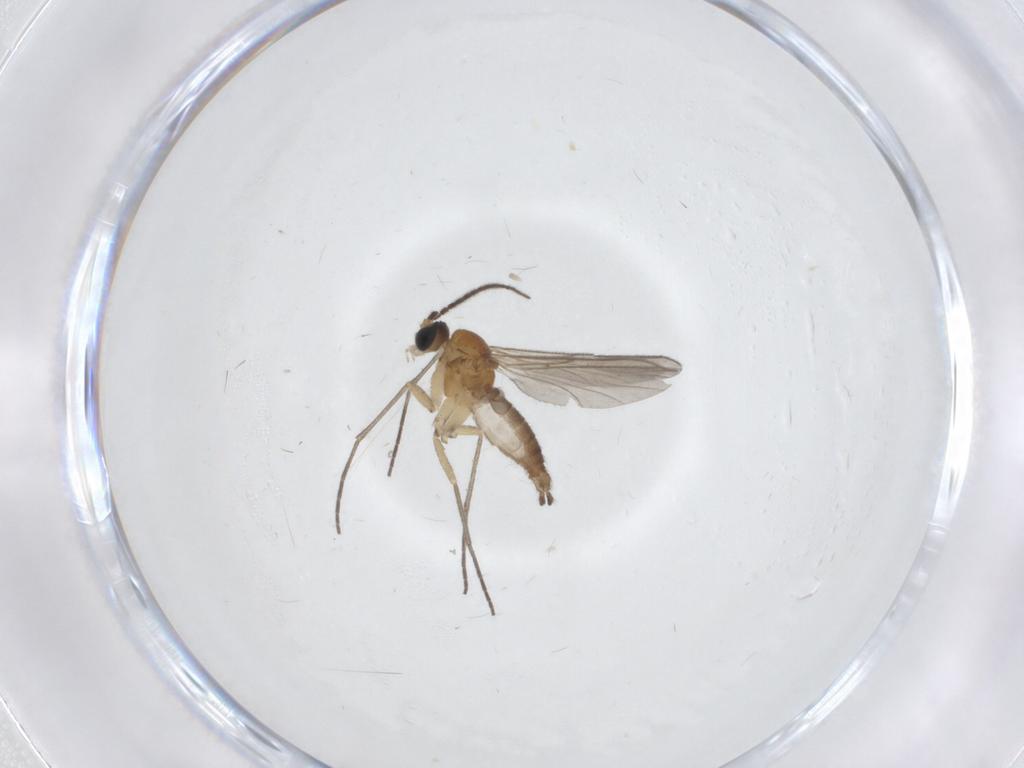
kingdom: Animalia
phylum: Arthropoda
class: Insecta
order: Diptera
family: Sciaridae
